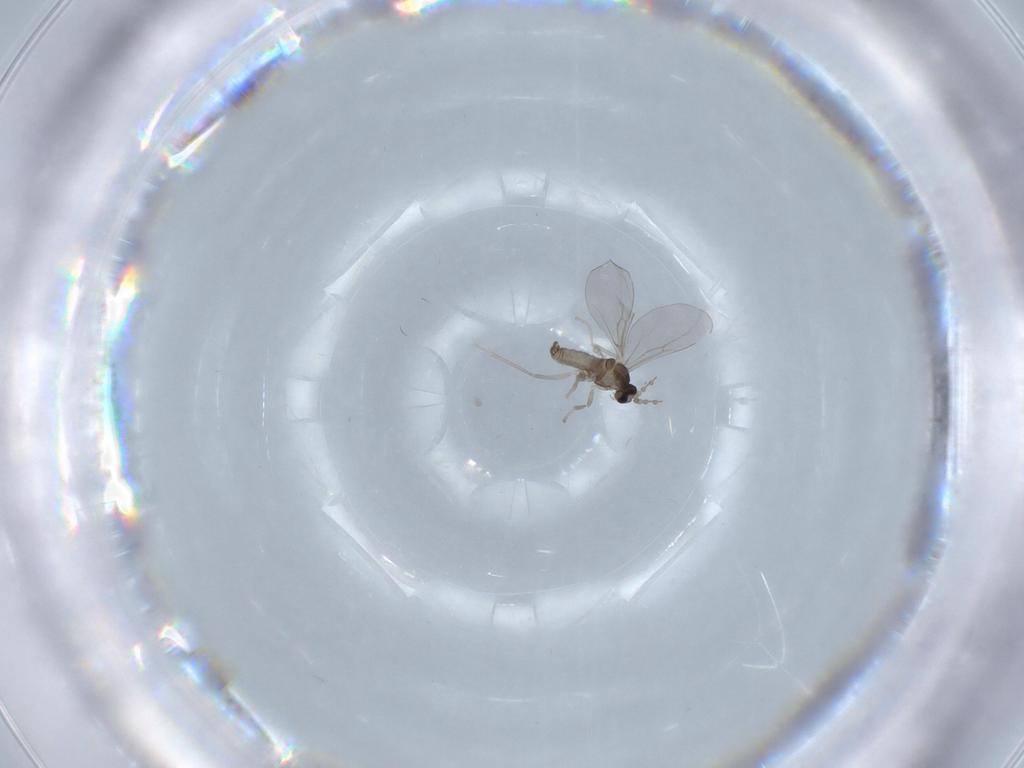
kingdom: Animalia
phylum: Arthropoda
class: Insecta
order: Diptera
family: Cecidomyiidae
